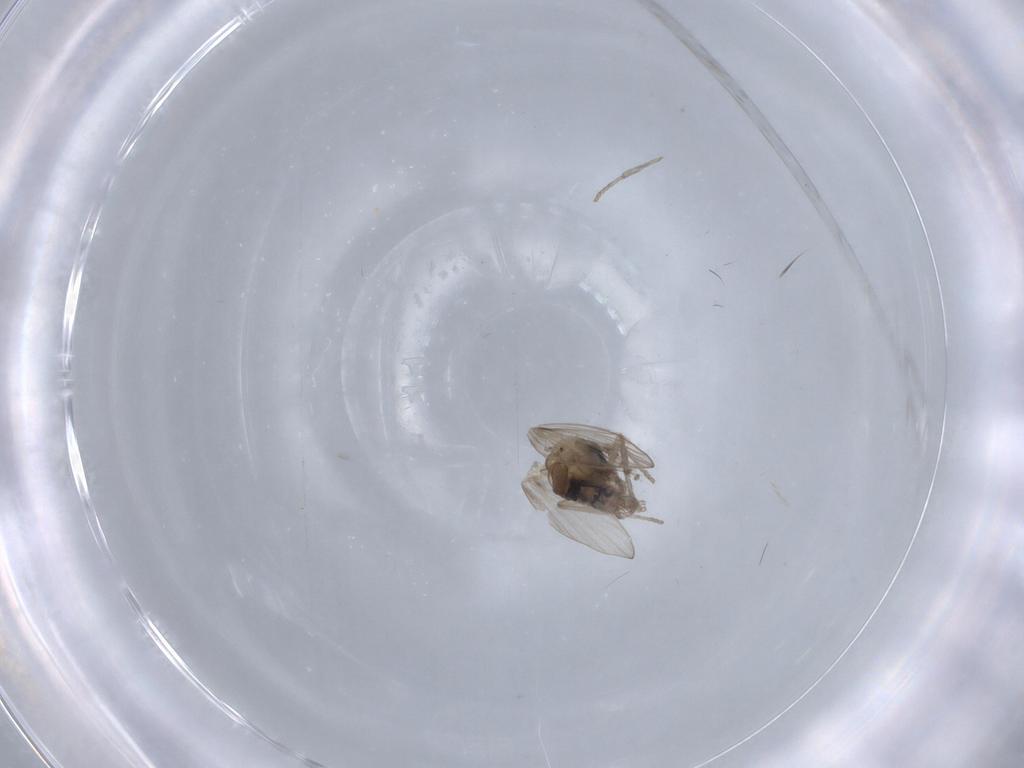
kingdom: Animalia
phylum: Arthropoda
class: Insecta
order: Diptera
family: Psychodidae
